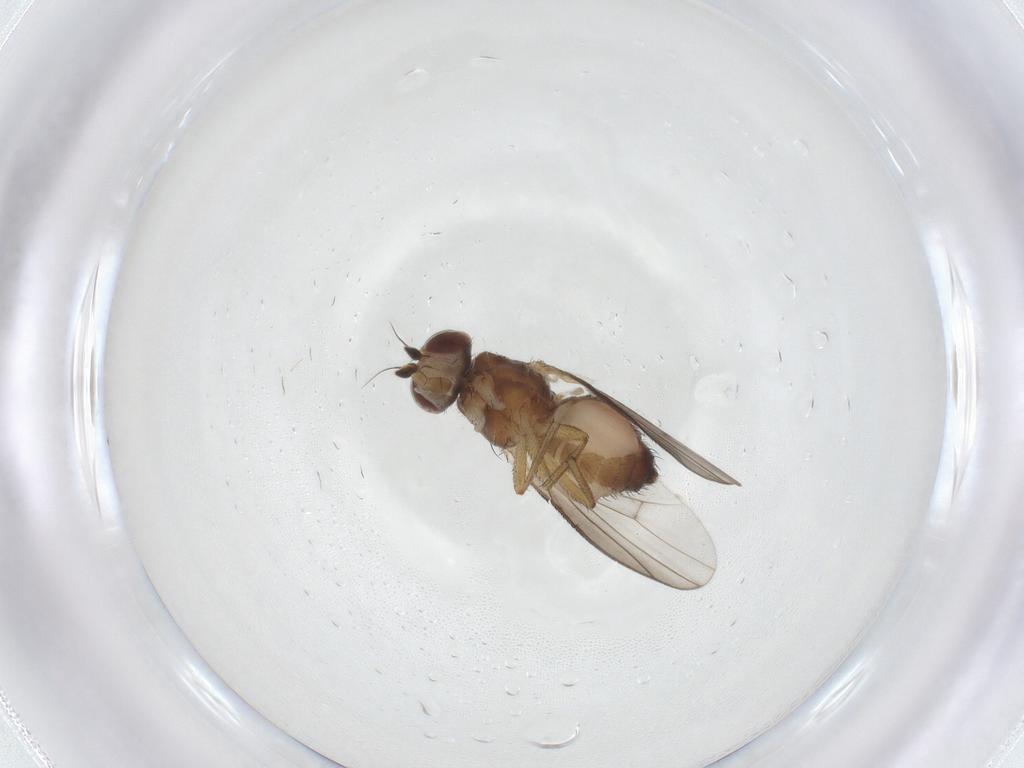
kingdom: Animalia
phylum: Arthropoda
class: Insecta
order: Diptera
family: Heleomyzidae
